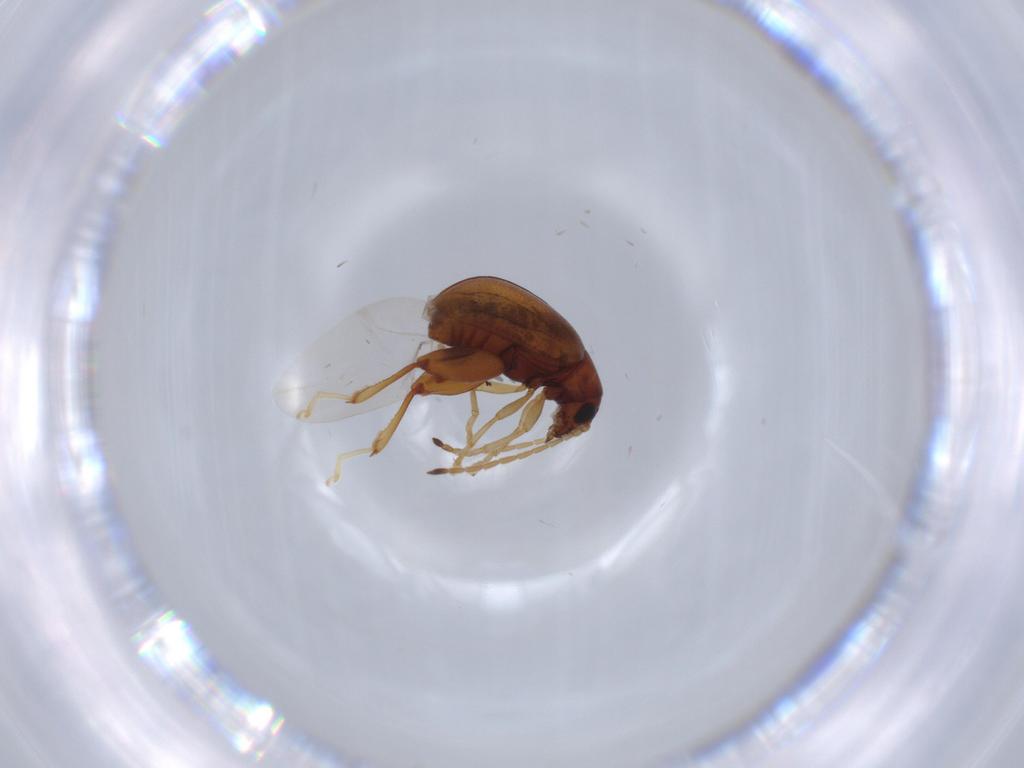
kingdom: Animalia
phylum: Arthropoda
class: Insecta
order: Coleoptera
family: Chrysomelidae
